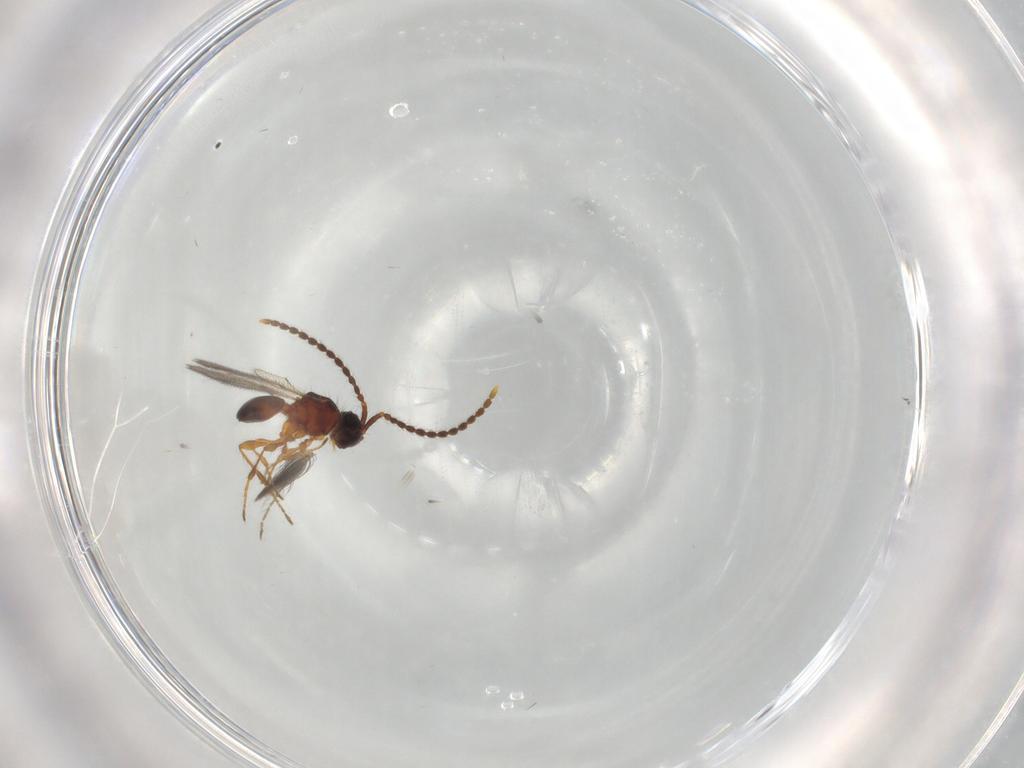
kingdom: Animalia
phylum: Arthropoda
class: Insecta
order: Hymenoptera
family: Diapriidae
